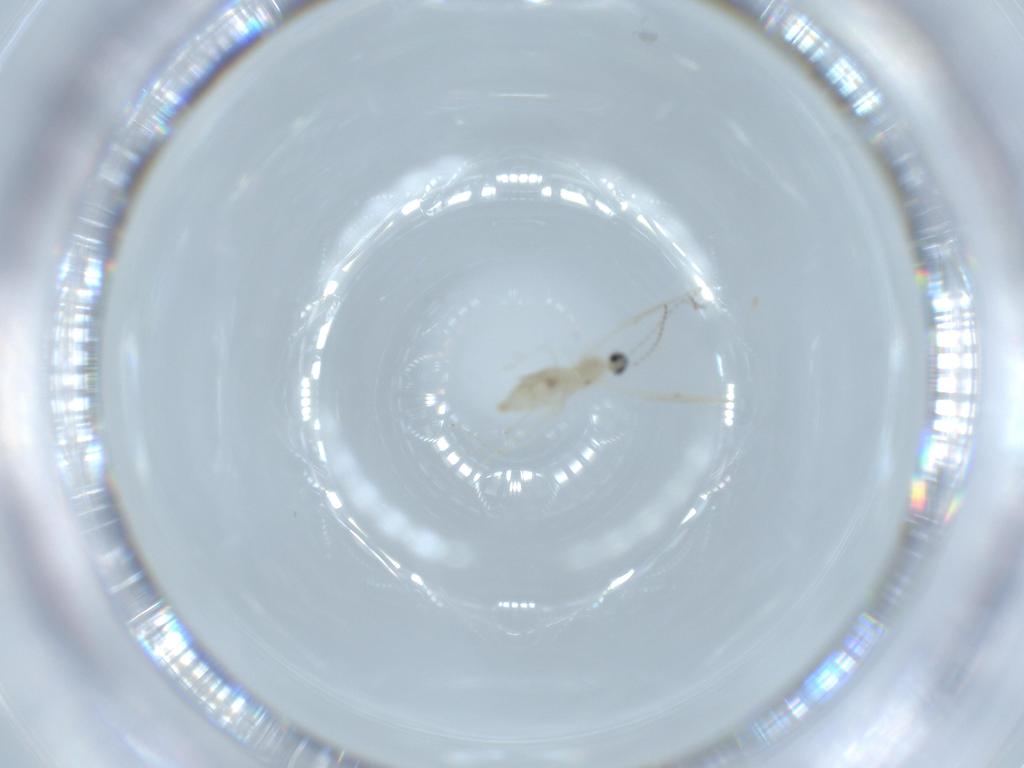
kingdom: Animalia
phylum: Arthropoda
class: Insecta
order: Diptera
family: Cecidomyiidae
